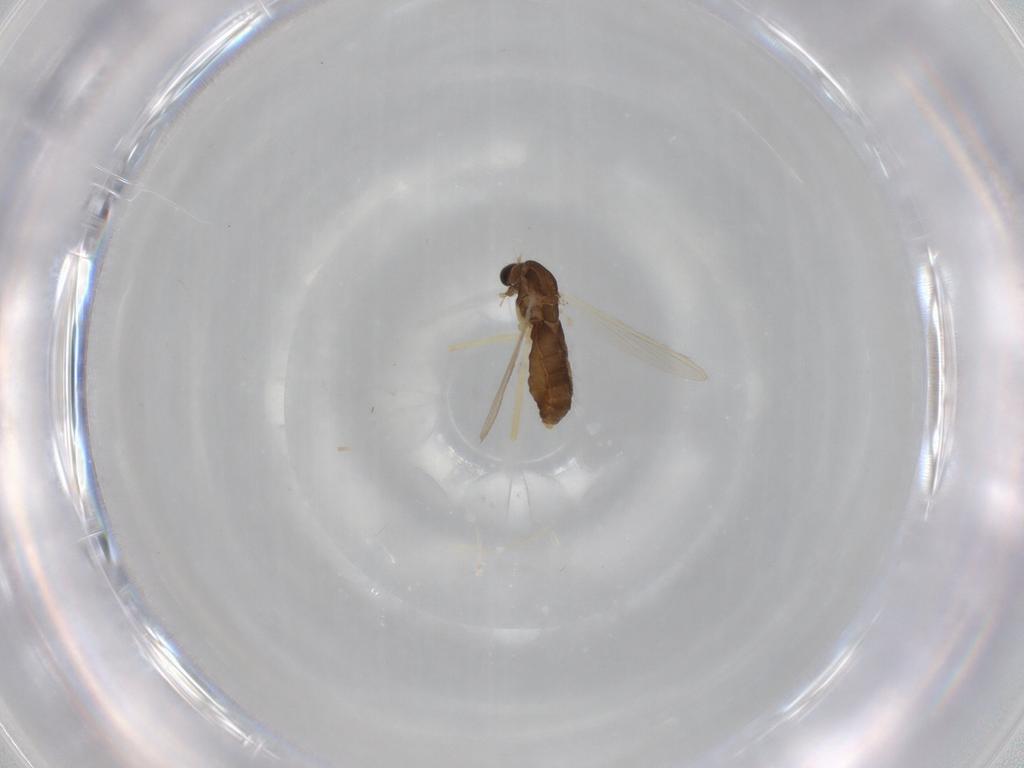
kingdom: Animalia
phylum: Arthropoda
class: Insecta
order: Diptera
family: Chironomidae
